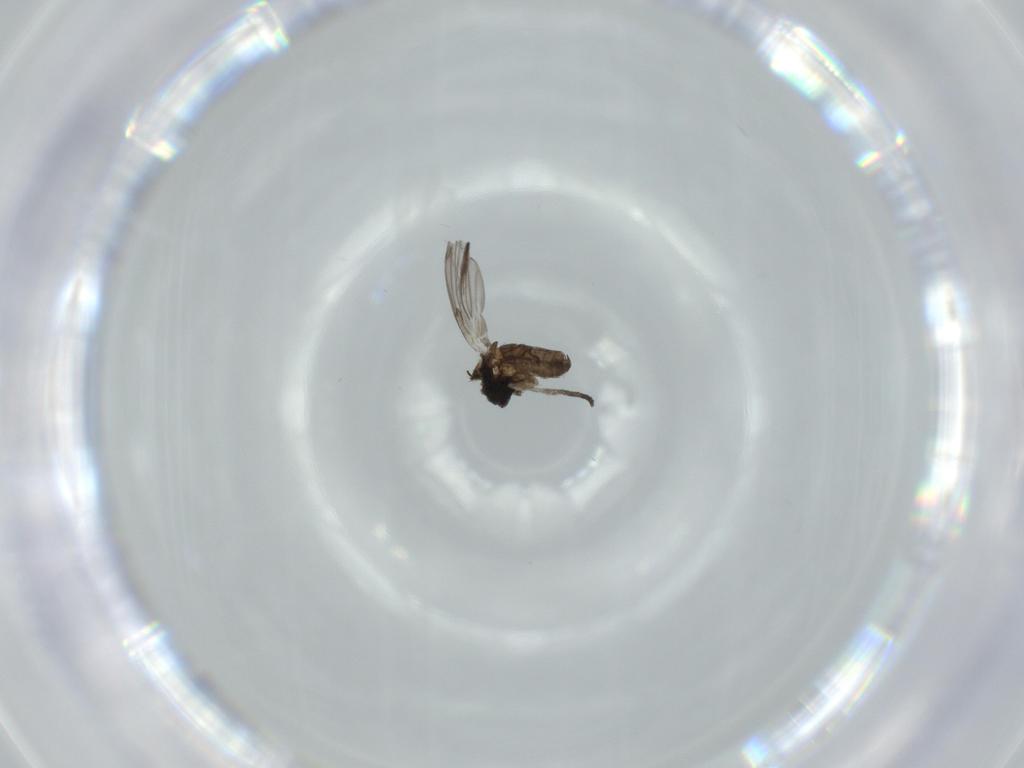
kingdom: Animalia
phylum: Arthropoda
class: Insecta
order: Diptera
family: Psychodidae
